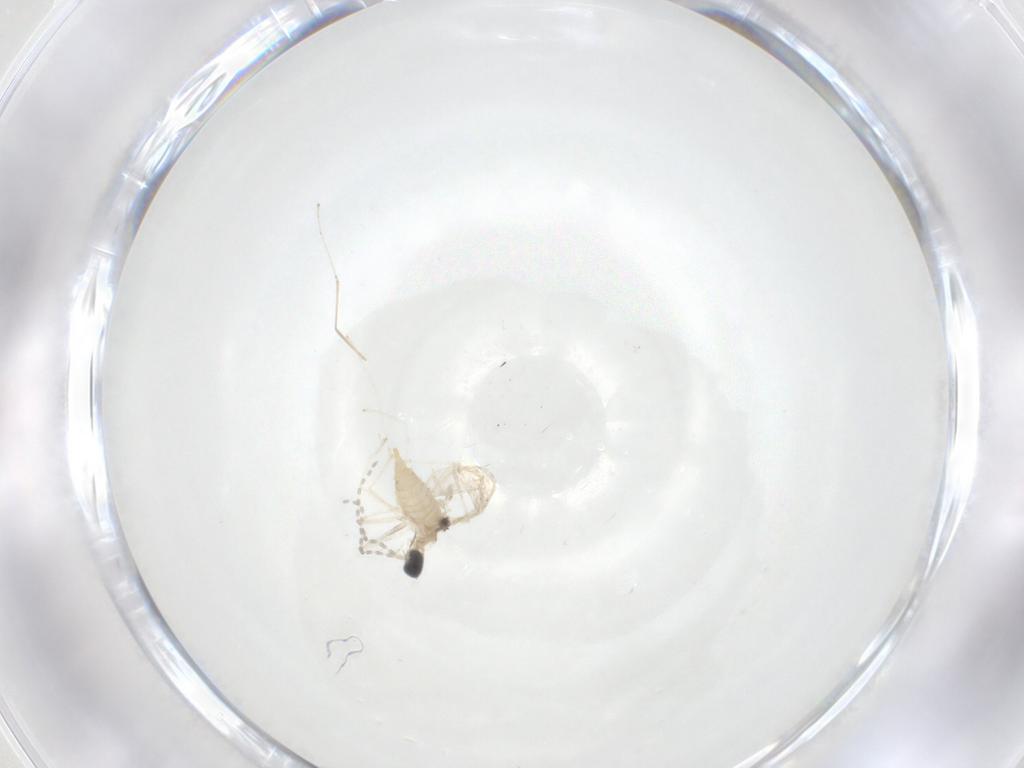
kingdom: Animalia
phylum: Arthropoda
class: Insecta
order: Diptera
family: Cecidomyiidae
